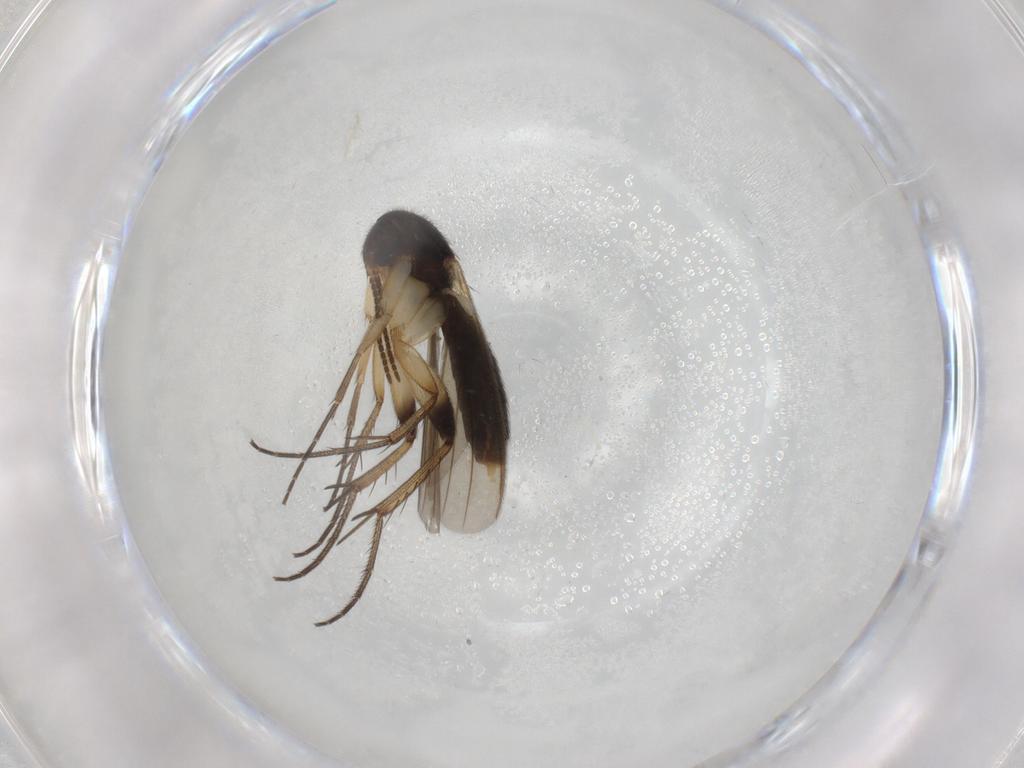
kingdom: Animalia
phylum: Arthropoda
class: Insecta
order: Diptera
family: Mycetophilidae
